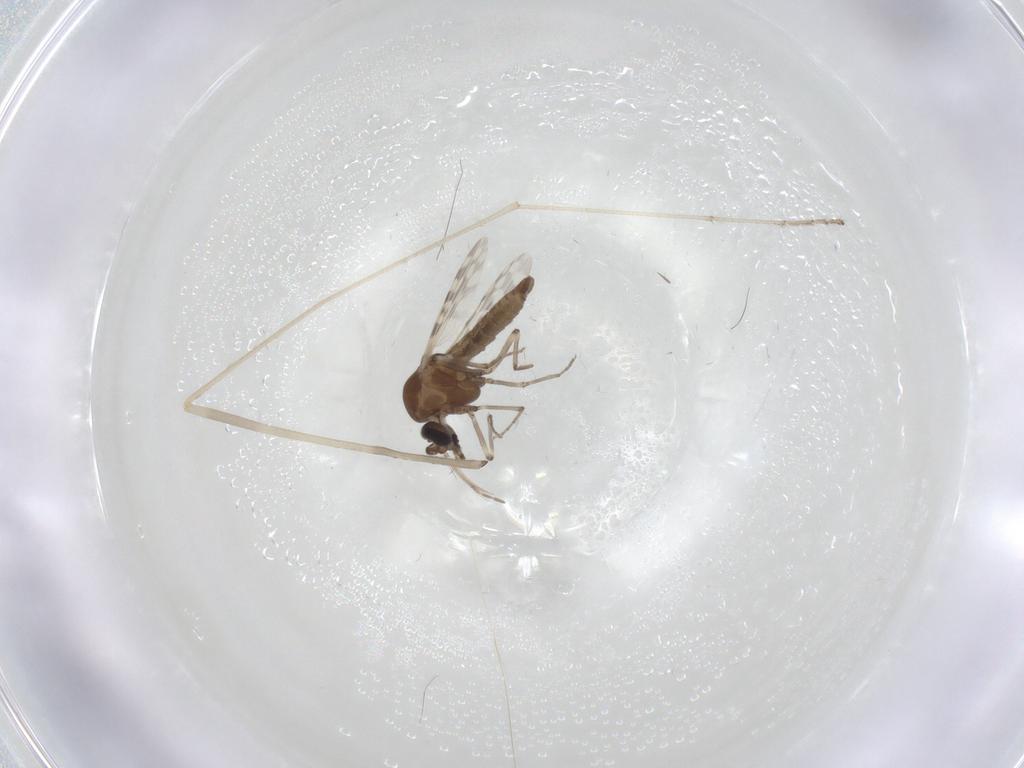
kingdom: Animalia
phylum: Arthropoda
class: Insecta
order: Diptera
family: Limoniidae
